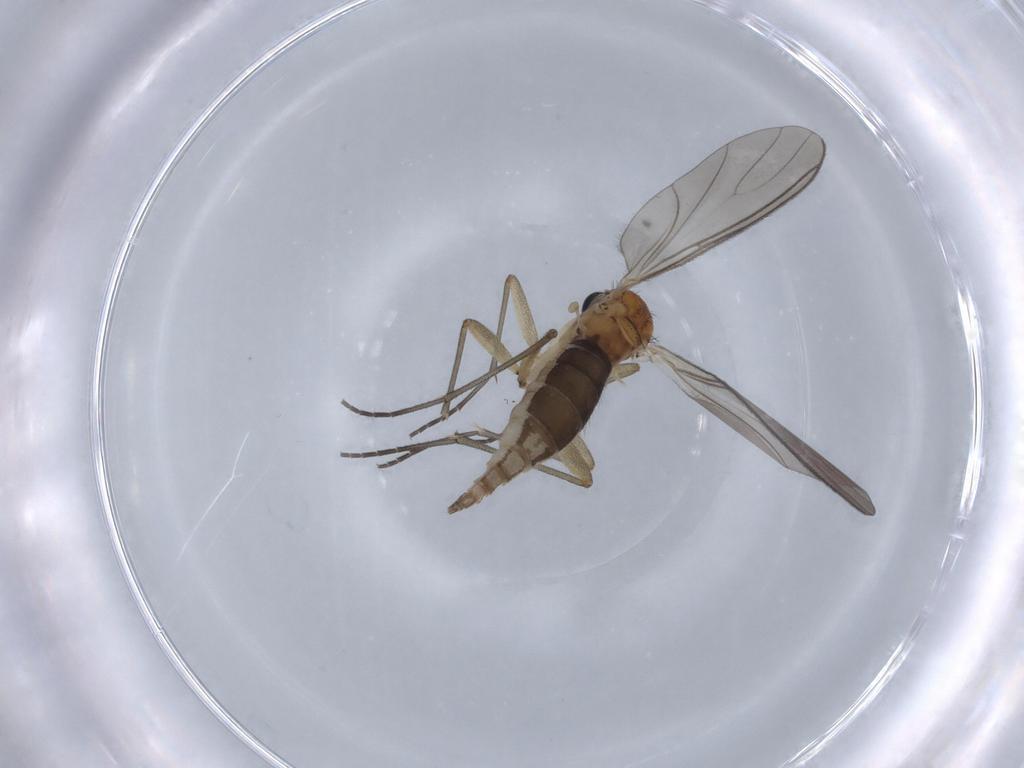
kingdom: Animalia
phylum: Arthropoda
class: Insecta
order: Diptera
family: Sciaridae
